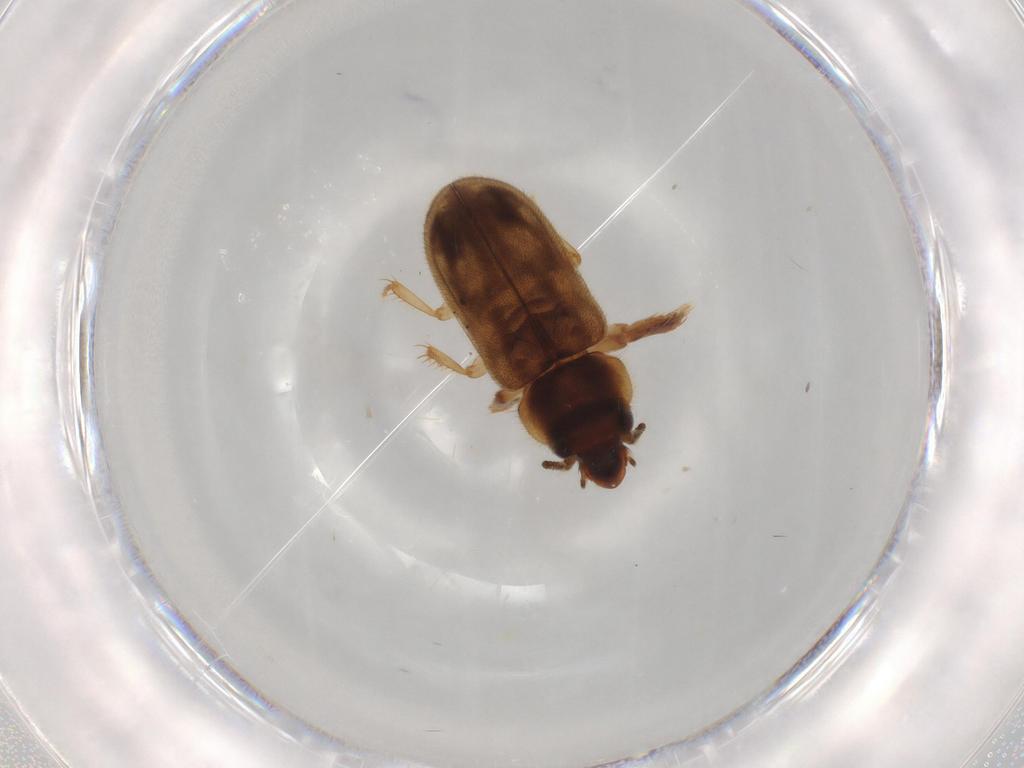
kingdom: Animalia
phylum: Arthropoda
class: Insecta
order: Coleoptera
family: Heteroceridae
